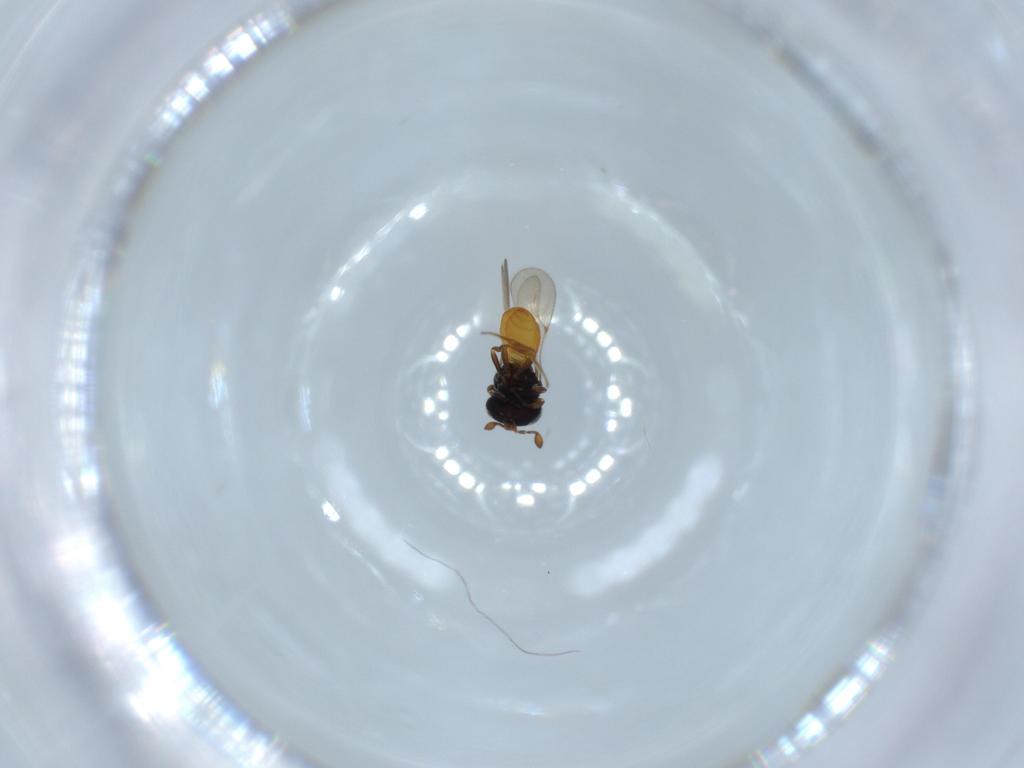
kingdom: Animalia
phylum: Arthropoda
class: Insecta
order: Hymenoptera
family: Scelionidae
